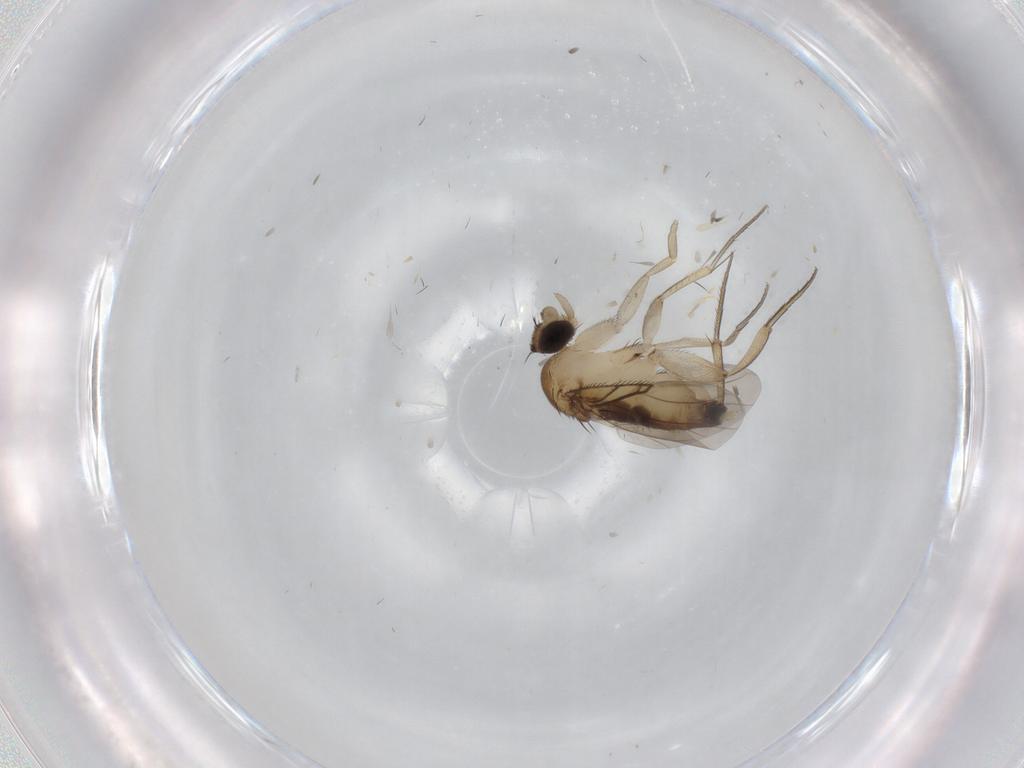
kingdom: Animalia
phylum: Arthropoda
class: Insecta
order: Diptera
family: Phoridae
